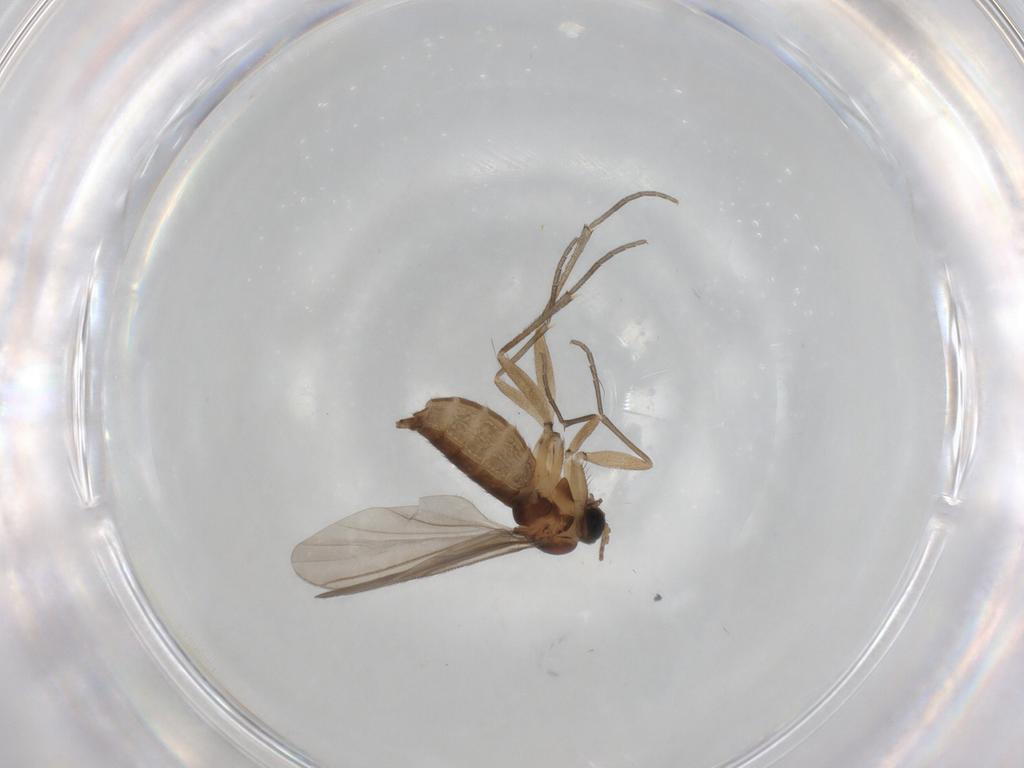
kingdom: Animalia
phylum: Arthropoda
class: Insecta
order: Diptera
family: Sciaridae
